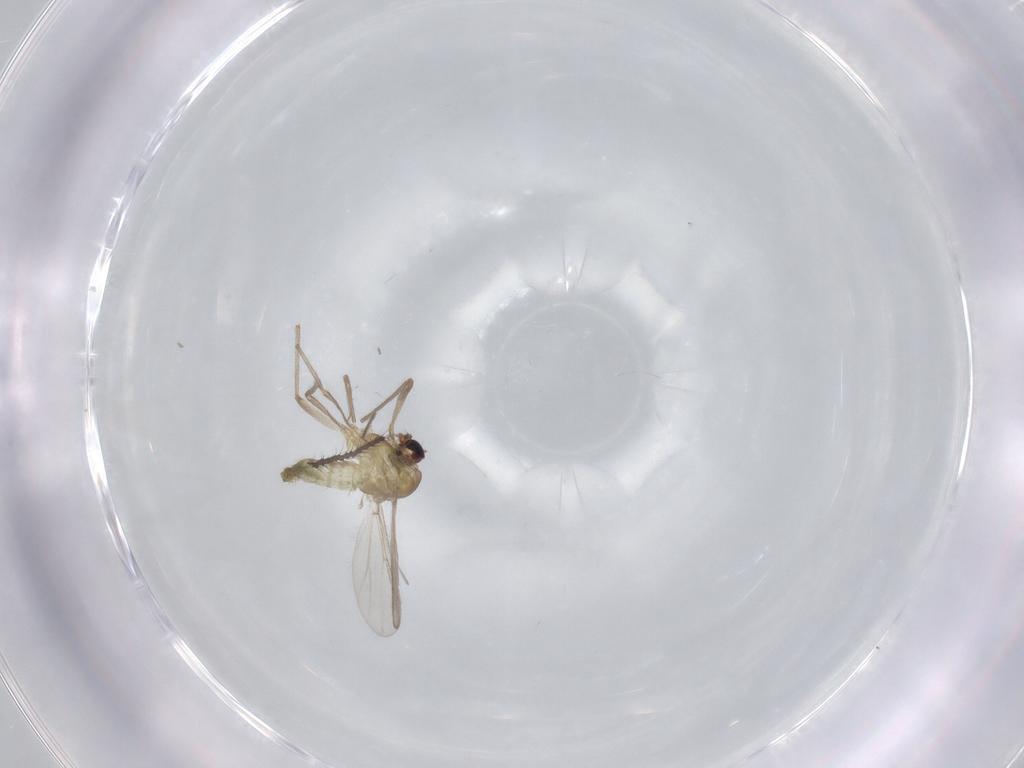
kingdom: Animalia
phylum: Arthropoda
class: Insecta
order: Diptera
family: Chironomidae
